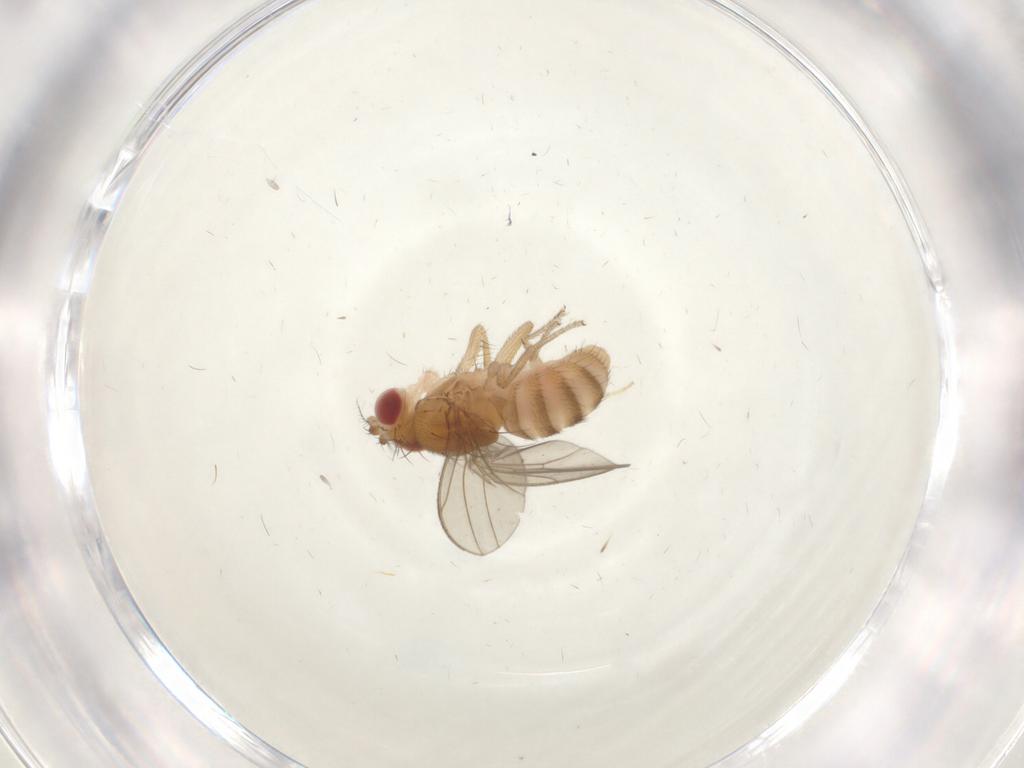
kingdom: Animalia
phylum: Arthropoda
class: Insecta
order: Diptera
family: Drosophilidae
